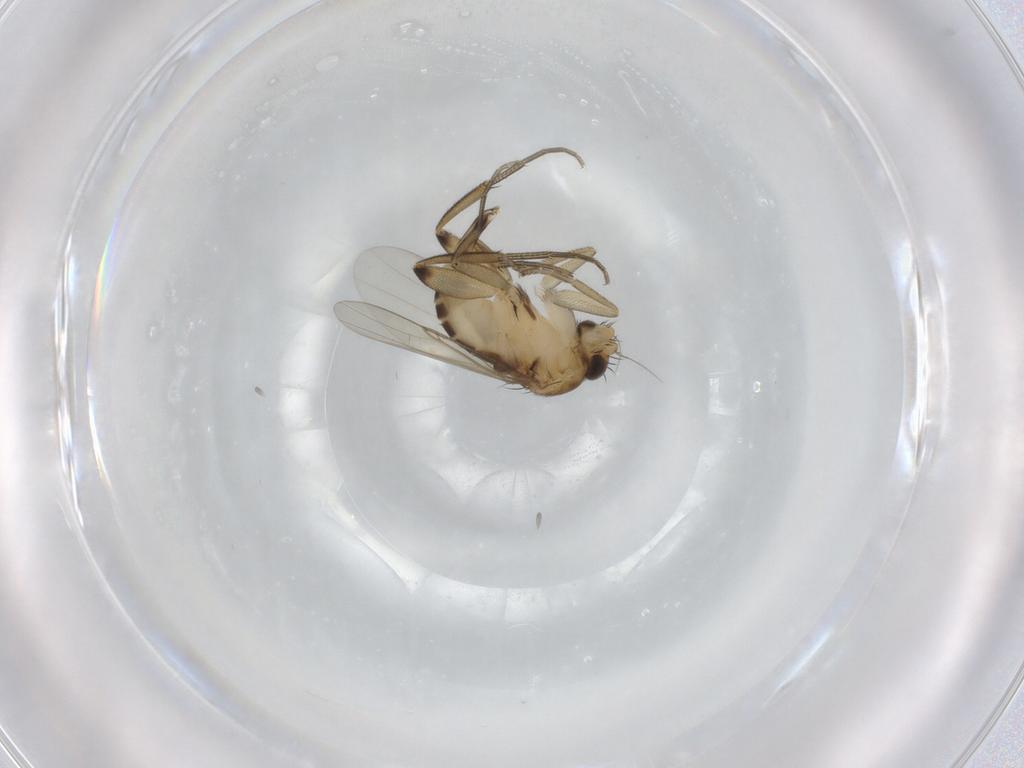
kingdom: Animalia
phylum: Arthropoda
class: Insecta
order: Diptera
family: Phoridae
